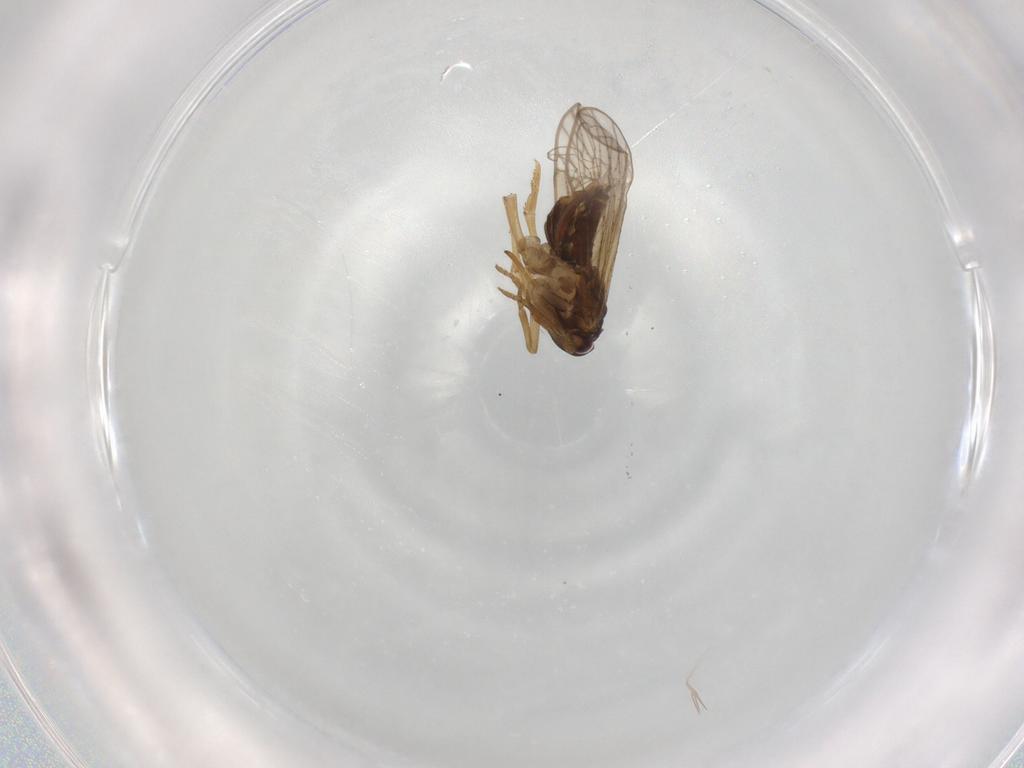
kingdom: Animalia
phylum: Arthropoda
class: Insecta
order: Hemiptera
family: Delphacidae
